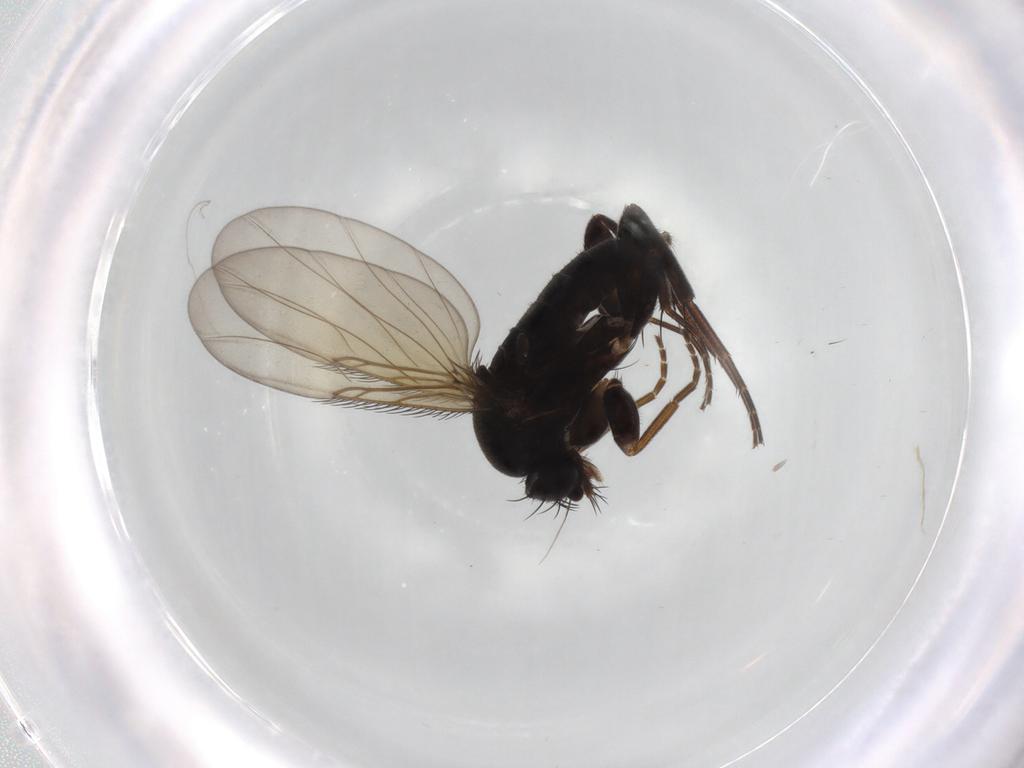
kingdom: Animalia
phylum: Arthropoda
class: Insecta
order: Diptera
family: Phoridae
